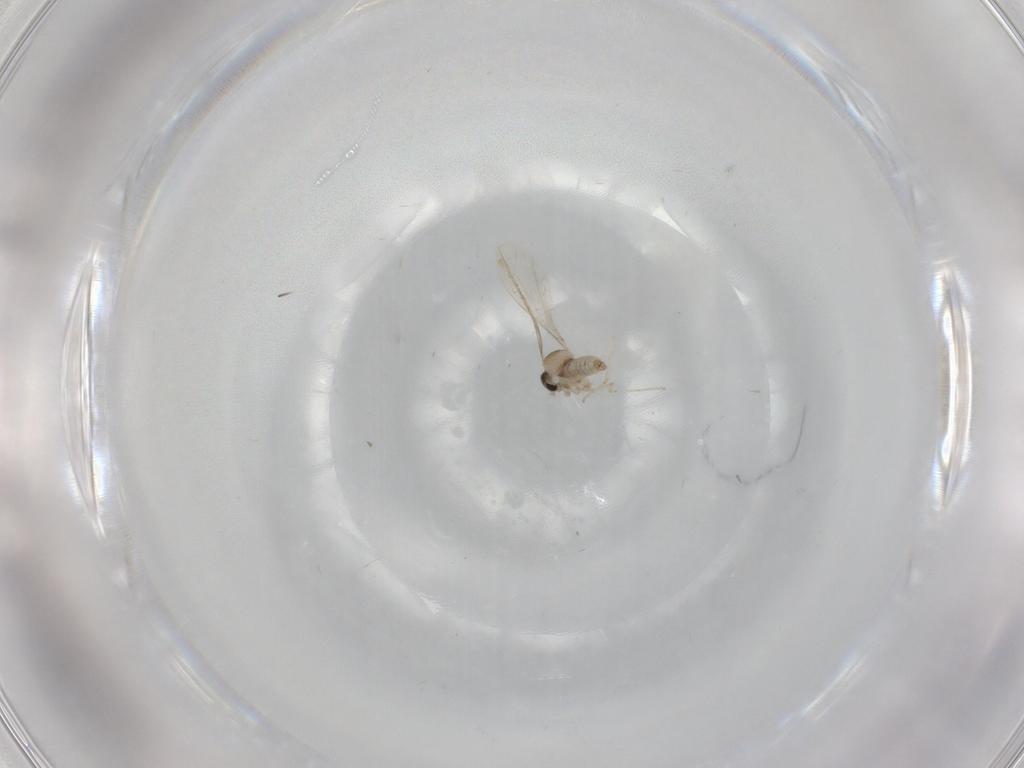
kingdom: Animalia
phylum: Arthropoda
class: Insecta
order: Diptera
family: Cecidomyiidae
